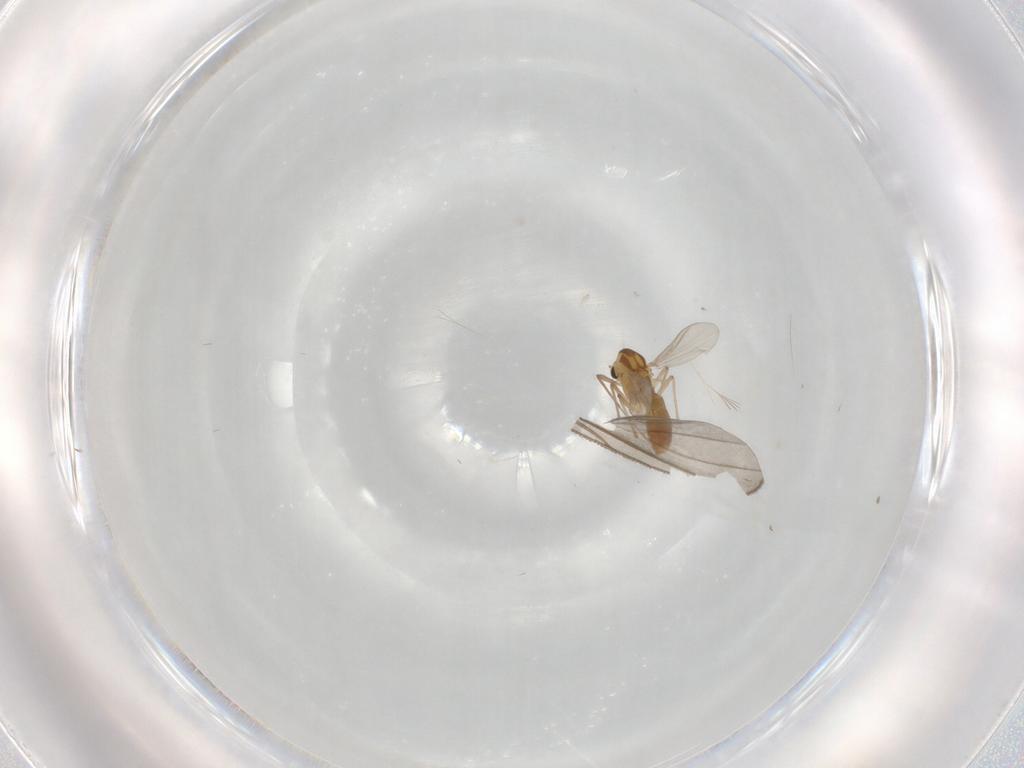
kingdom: Animalia
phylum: Arthropoda
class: Insecta
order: Diptera
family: Chironomidae
